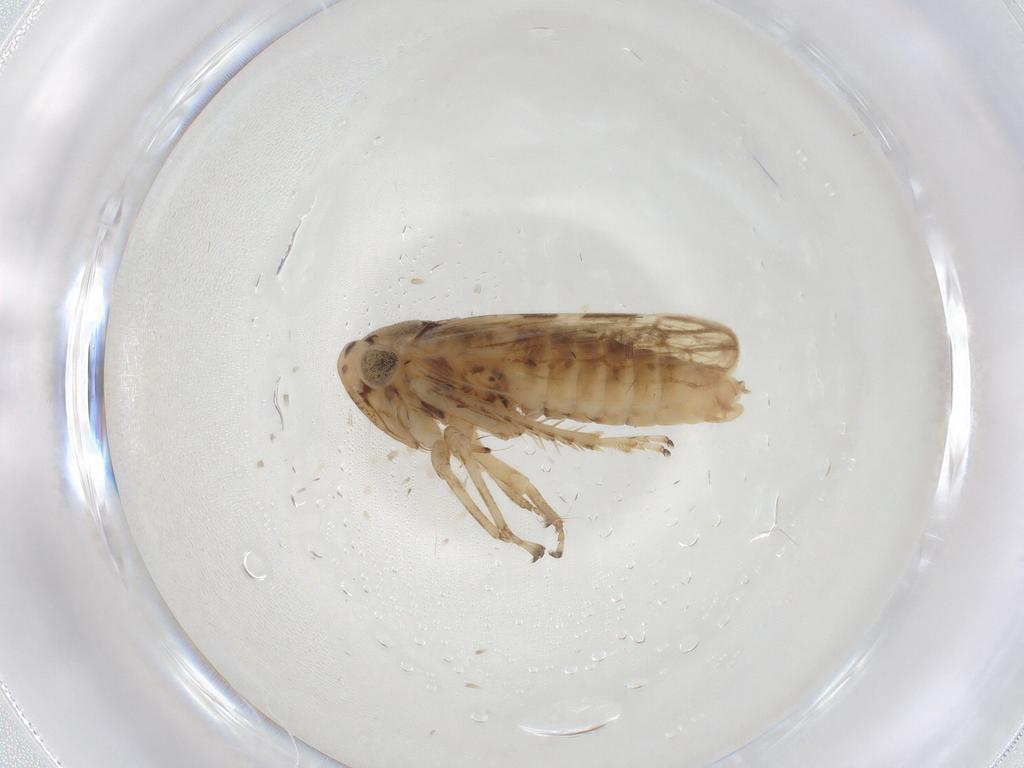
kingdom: Animalia
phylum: Arthropoda
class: Insecta
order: Hemiptera
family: Cicadellidae
